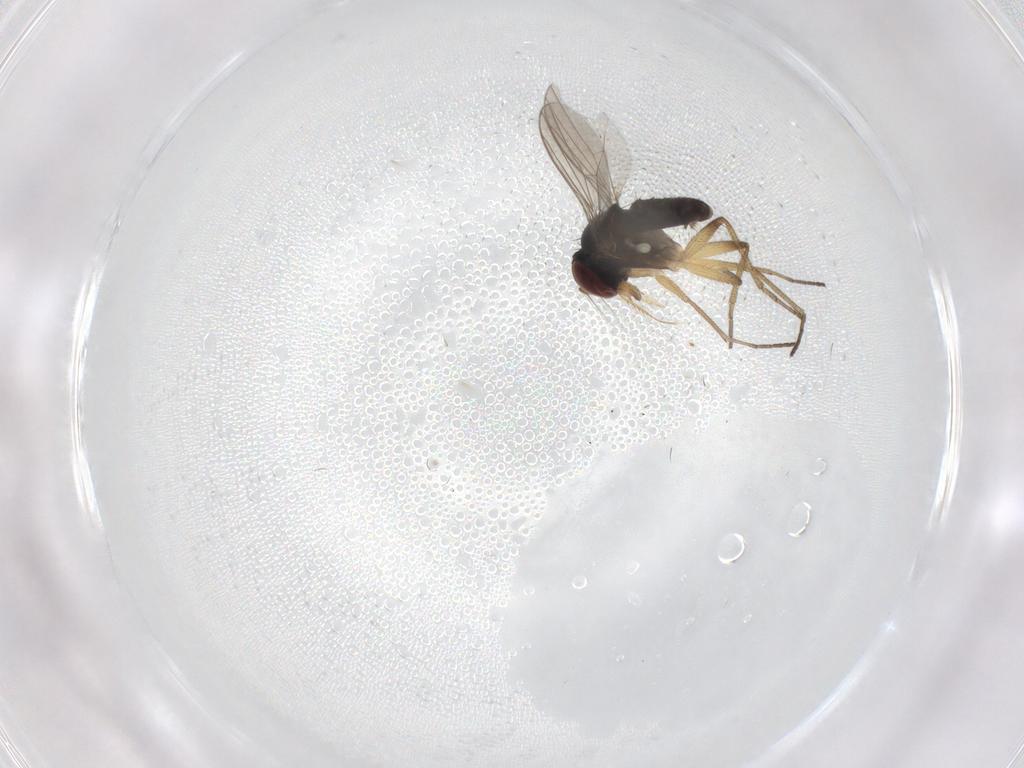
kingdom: Animalia
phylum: Arthropoda
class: Insecta
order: Diptera
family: Dolichopodidae
